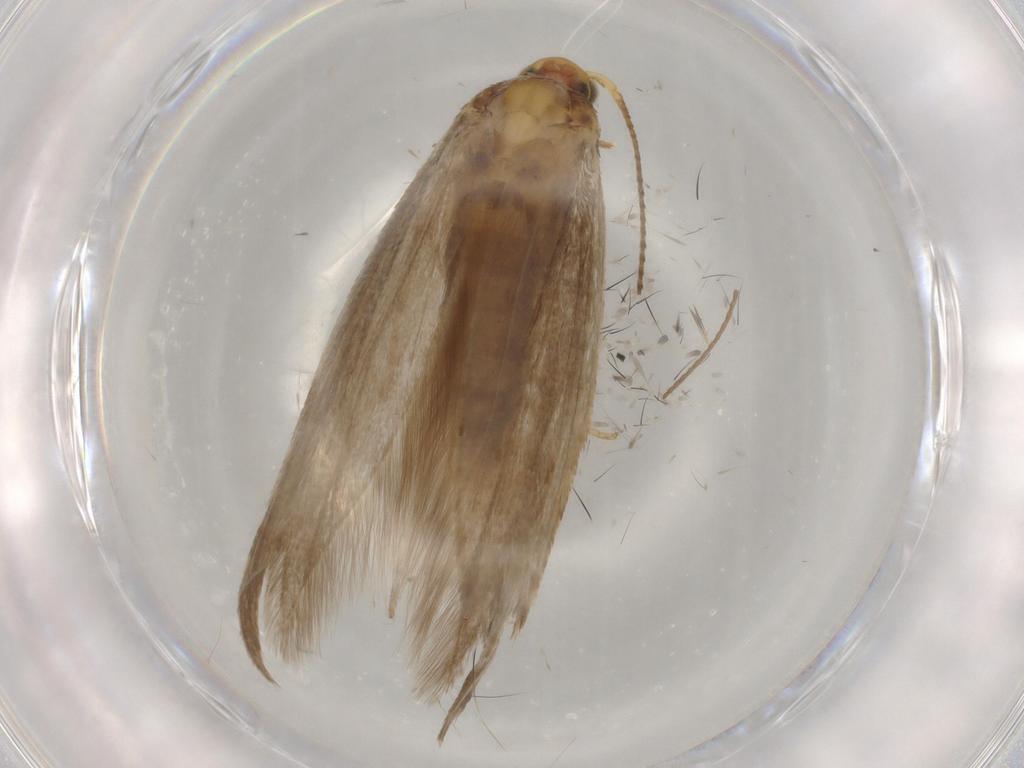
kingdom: Animalia
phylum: Arthropoda
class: Insecta
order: Lepidoptera
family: Argyresthiidae
